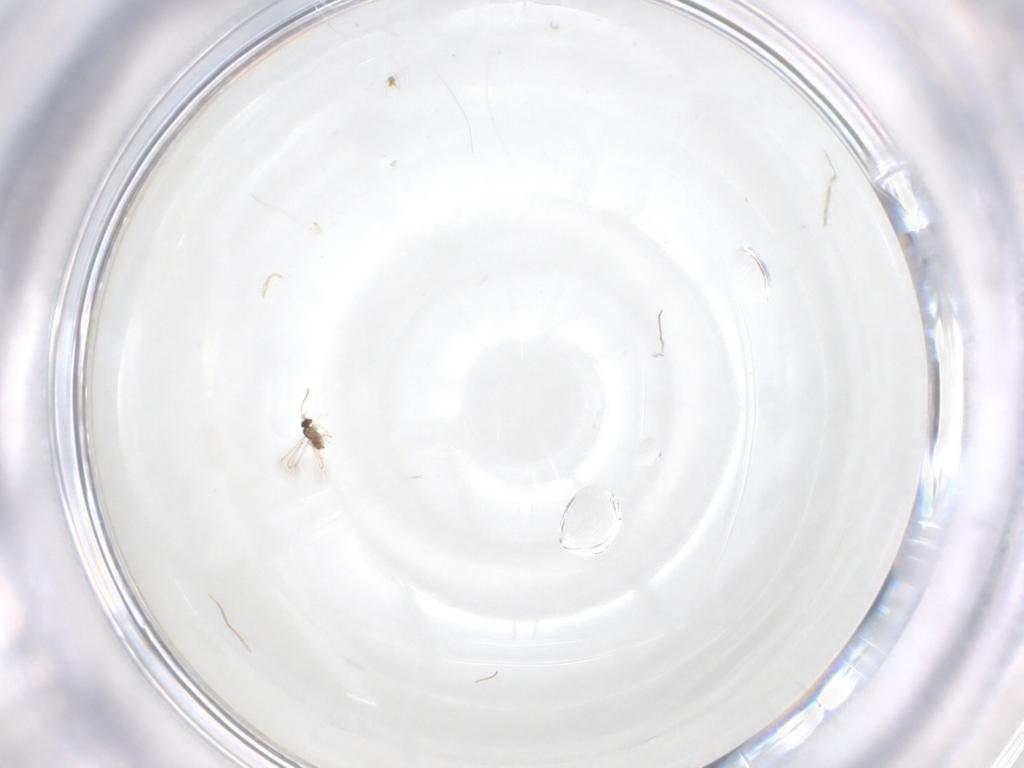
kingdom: Animalia
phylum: Arthropoda
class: Insecta
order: Hymenoptera
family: Mymaridae
